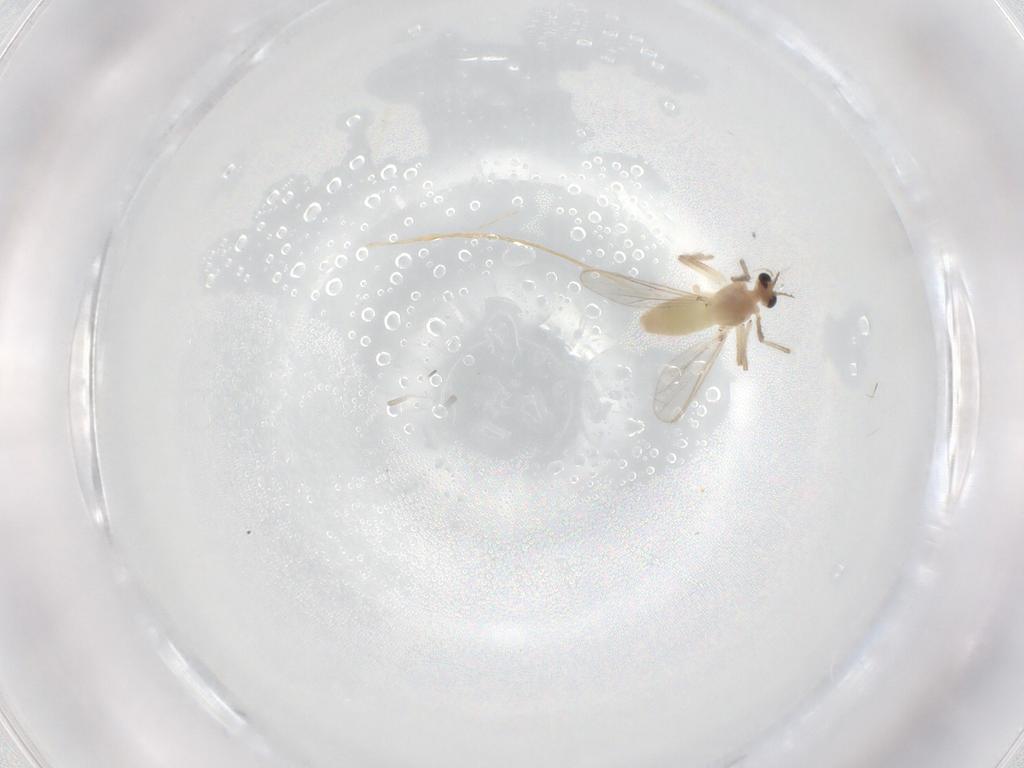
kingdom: Animalia
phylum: Arthropoda
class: Insecta
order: Diptera
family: Chironomidae
